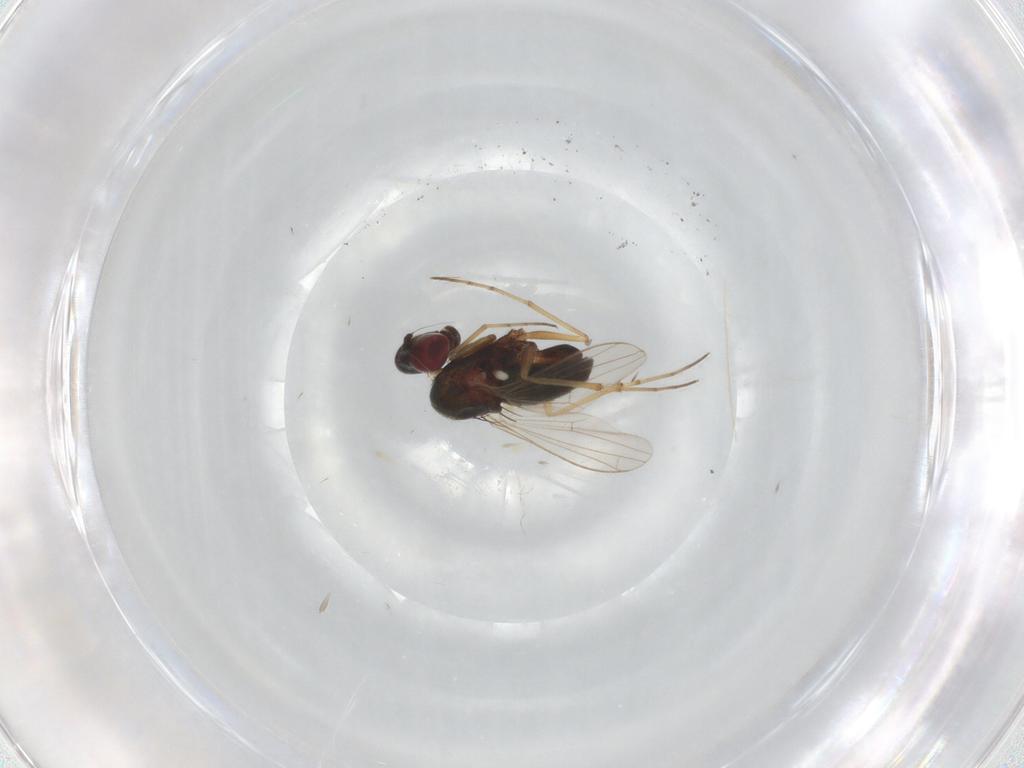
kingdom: Animalia
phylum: Arthropoda
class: Insecta
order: Diptera
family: Dolichopodidae
